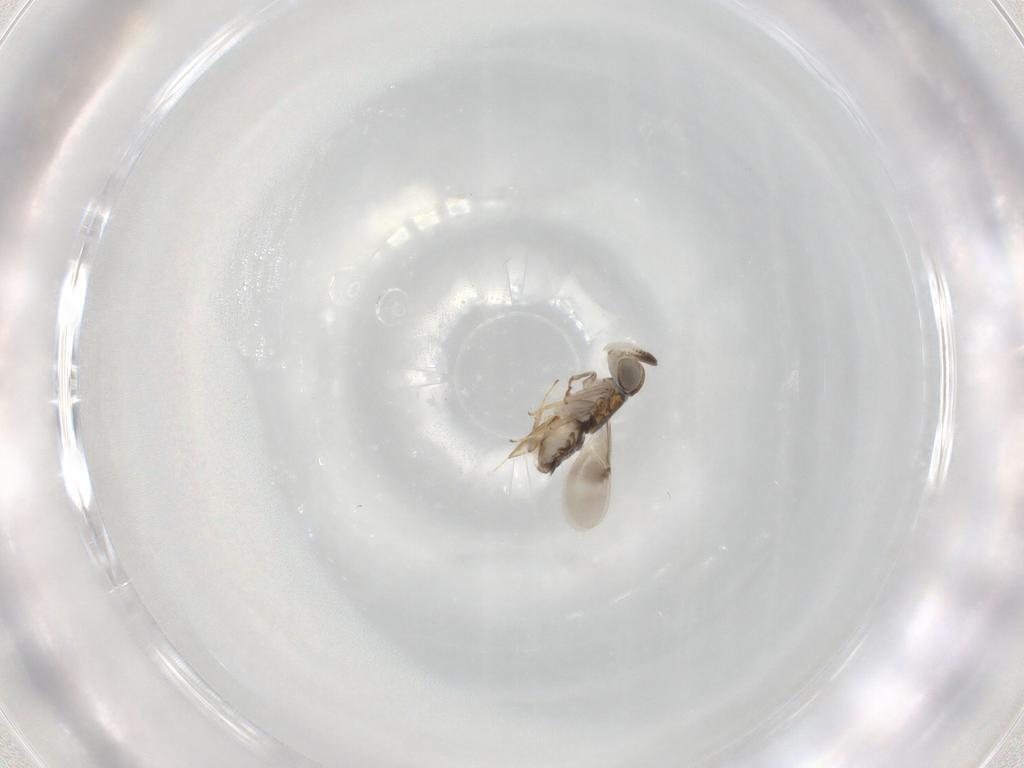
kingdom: Animalia
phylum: Arthropoda
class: Insecta
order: Hymenoptera
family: Encyrtidae
